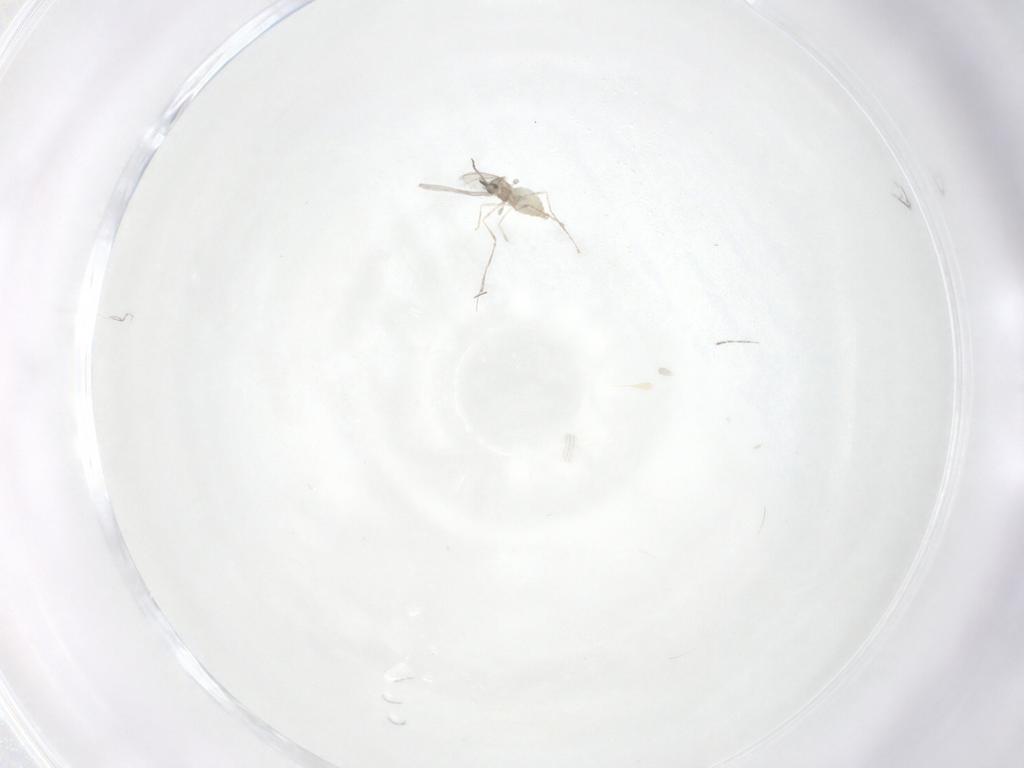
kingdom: Animalia
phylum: Arthropoda
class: Insecta
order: Diptera
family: Cecidomyiidae
